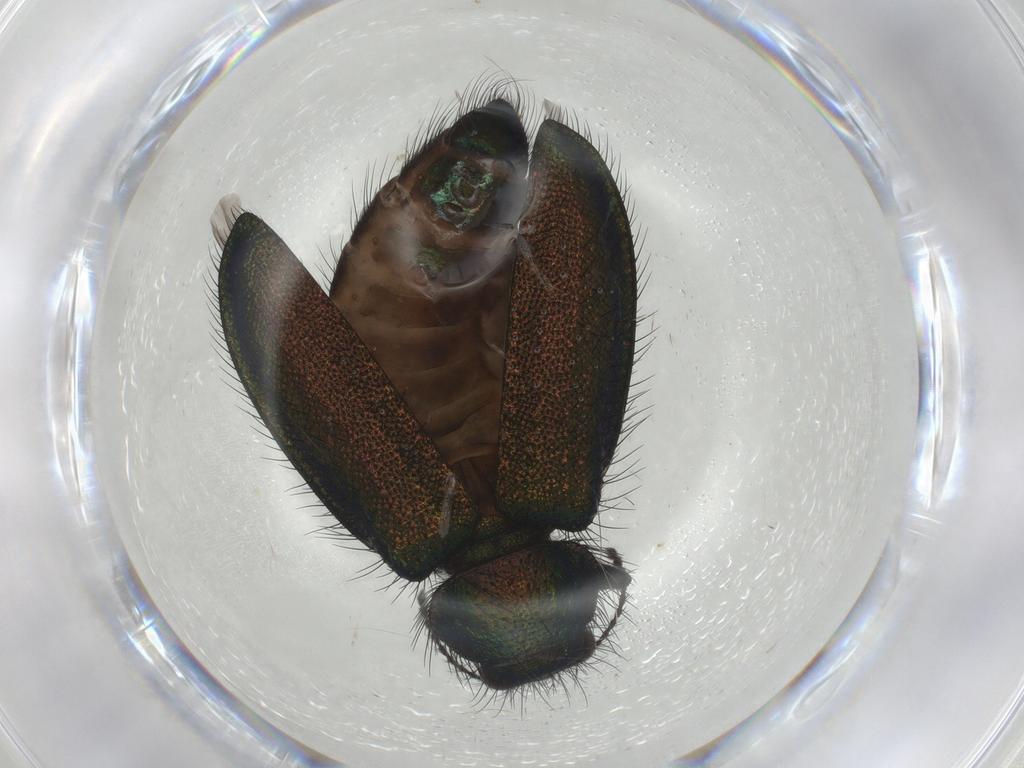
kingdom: Animalia
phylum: Arthropoda
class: Insecta
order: Coleoptera
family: Melyridae
